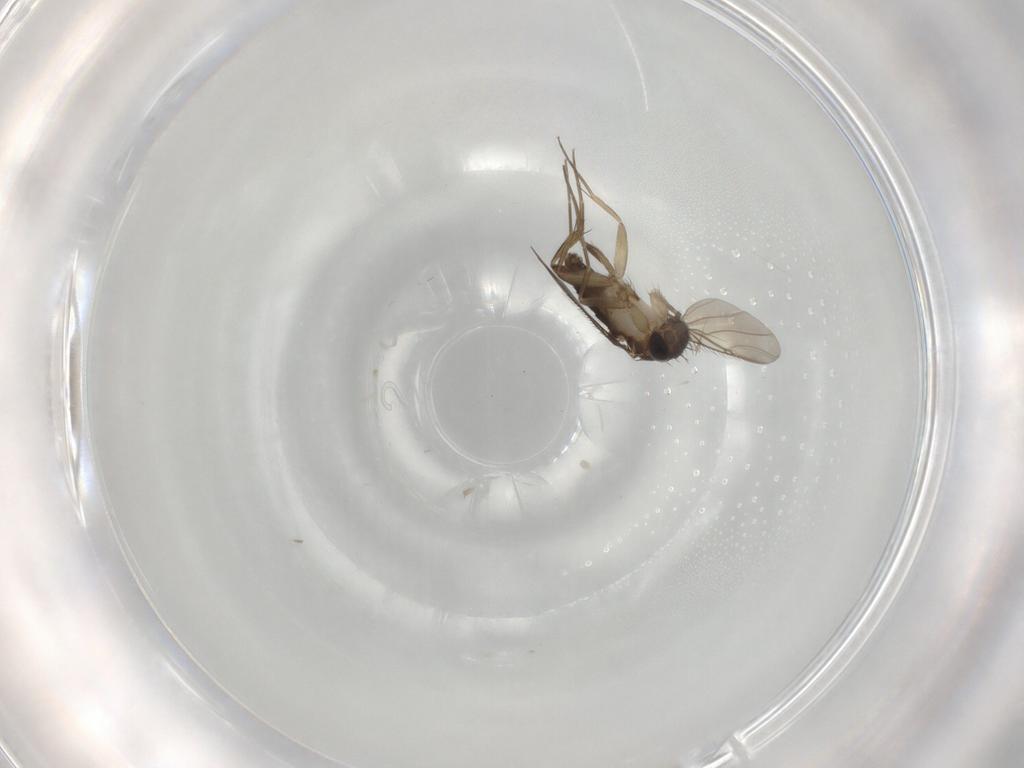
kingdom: Animalia
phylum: Arthropoda
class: Insecta
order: Diptera
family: Phoridae
